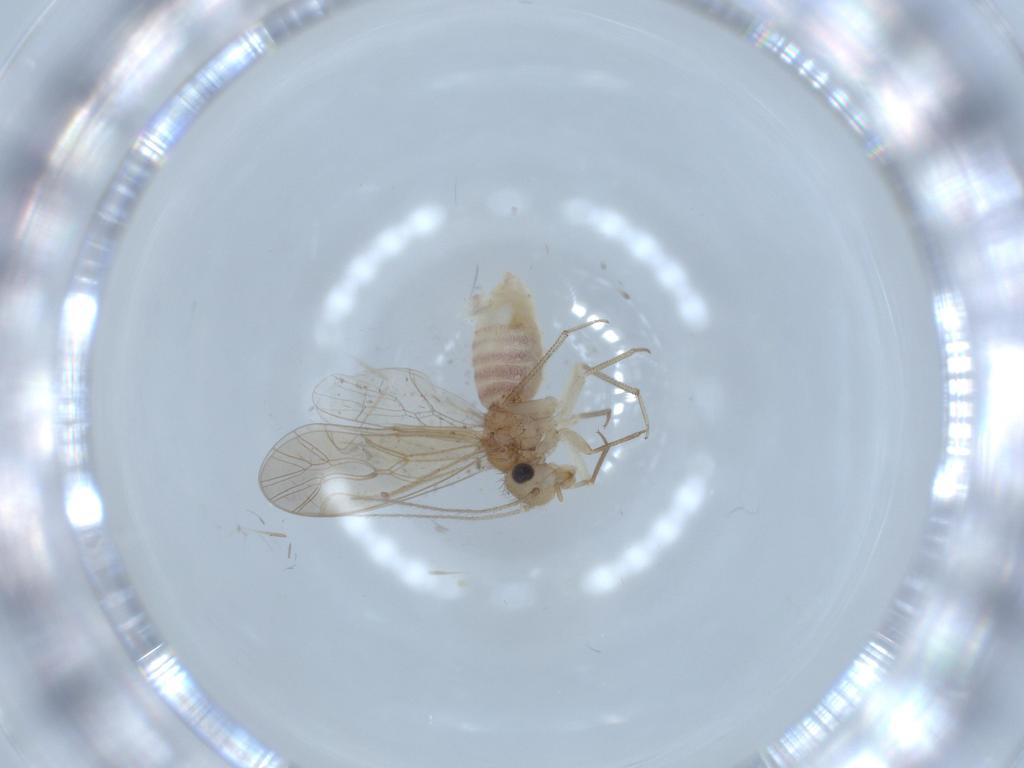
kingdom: Animalia
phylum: Arthropoda
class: Insecta
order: Psocodea
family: Caeciliusidae
